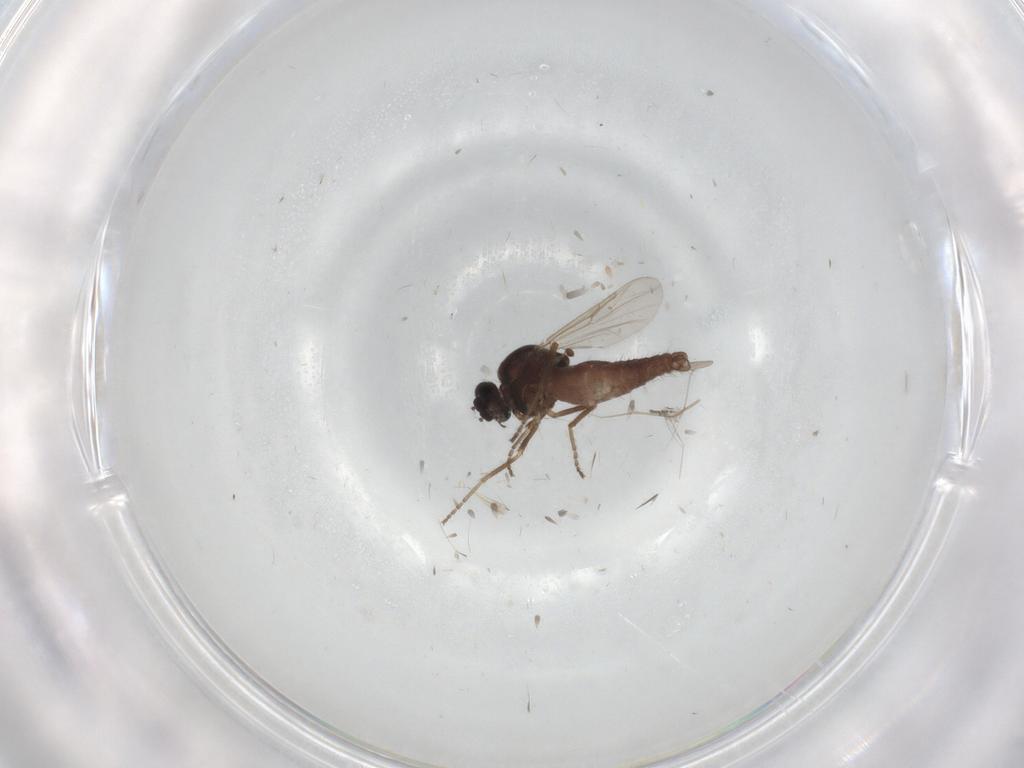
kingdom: Animalia
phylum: Arthropoda
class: Insecta
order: Diptera
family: Ceratopogonidae
